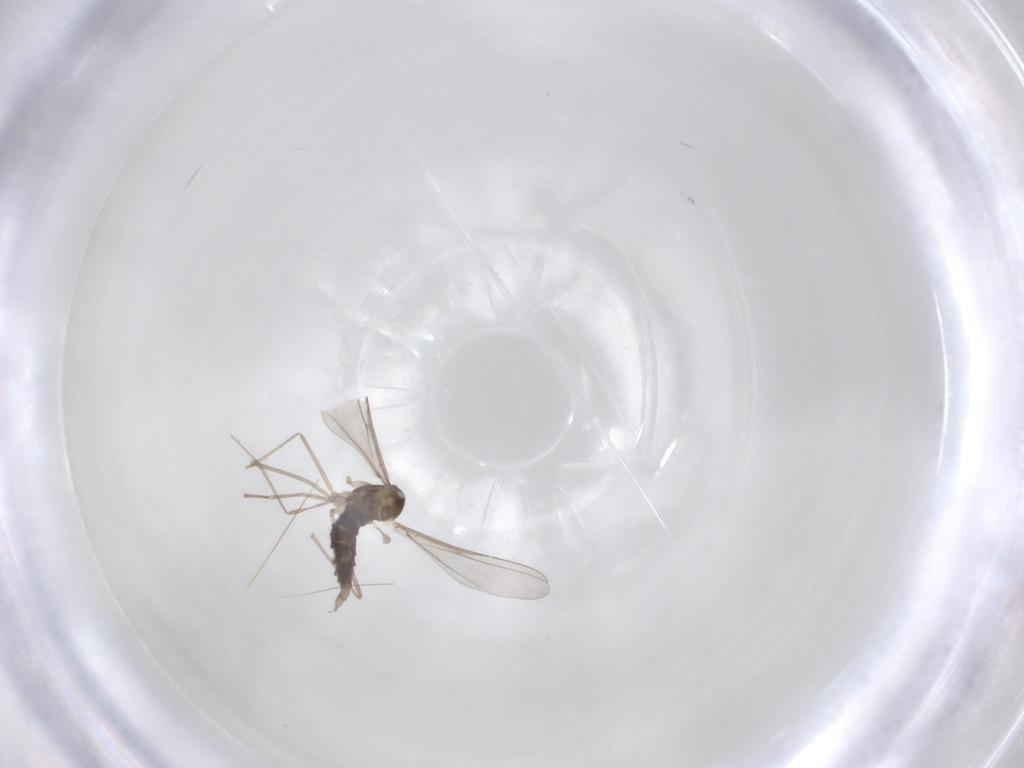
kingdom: Animalia
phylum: Arthropoda
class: Insecta
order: Diptera
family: Cecidomyiidae
